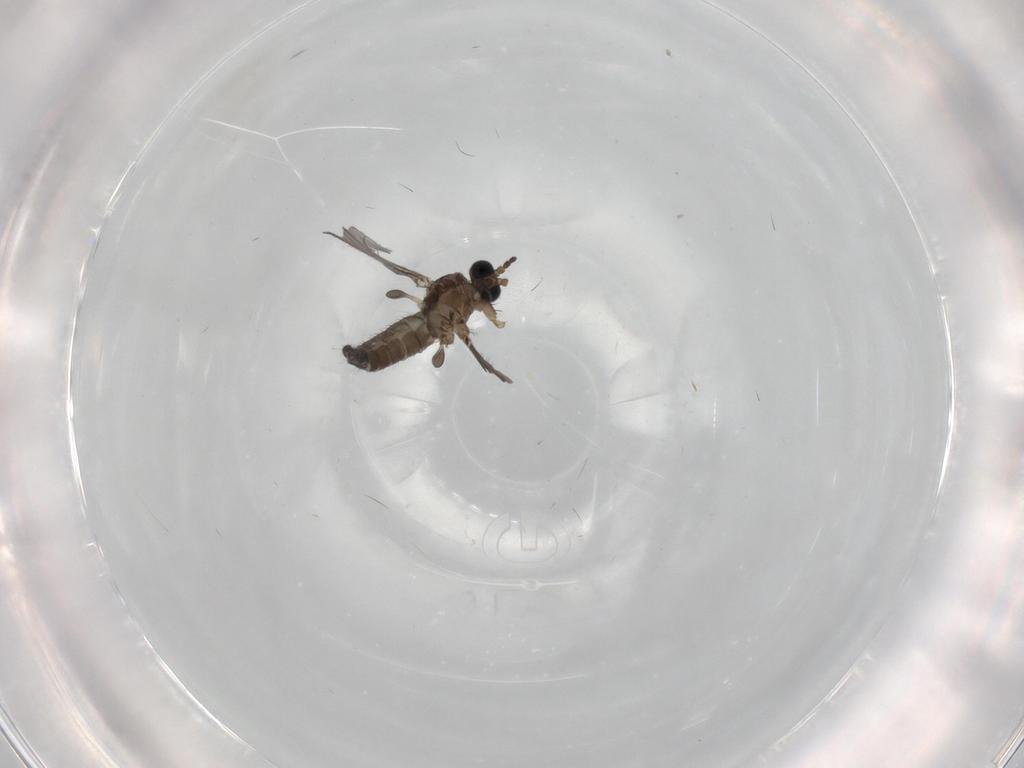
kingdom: Animalia
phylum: Arthropoda
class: Insecta
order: Diptera
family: Chironomidae
